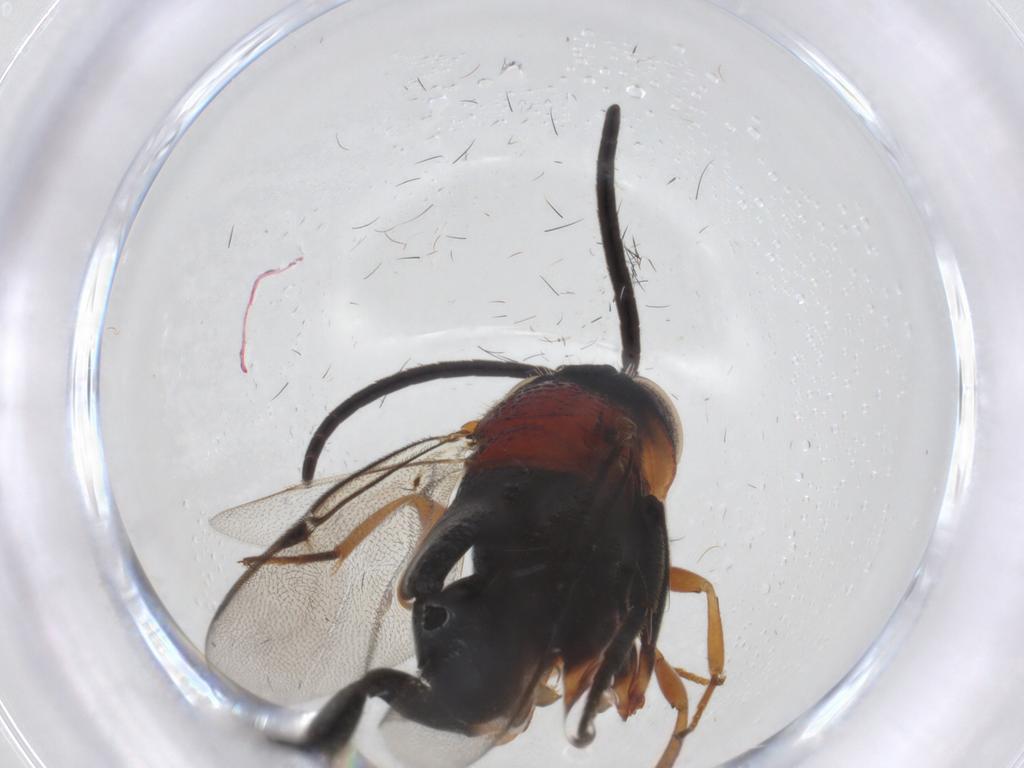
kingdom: Animalia
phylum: Arthropoda
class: Insecta
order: Hymenoptera
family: Evaniidae
